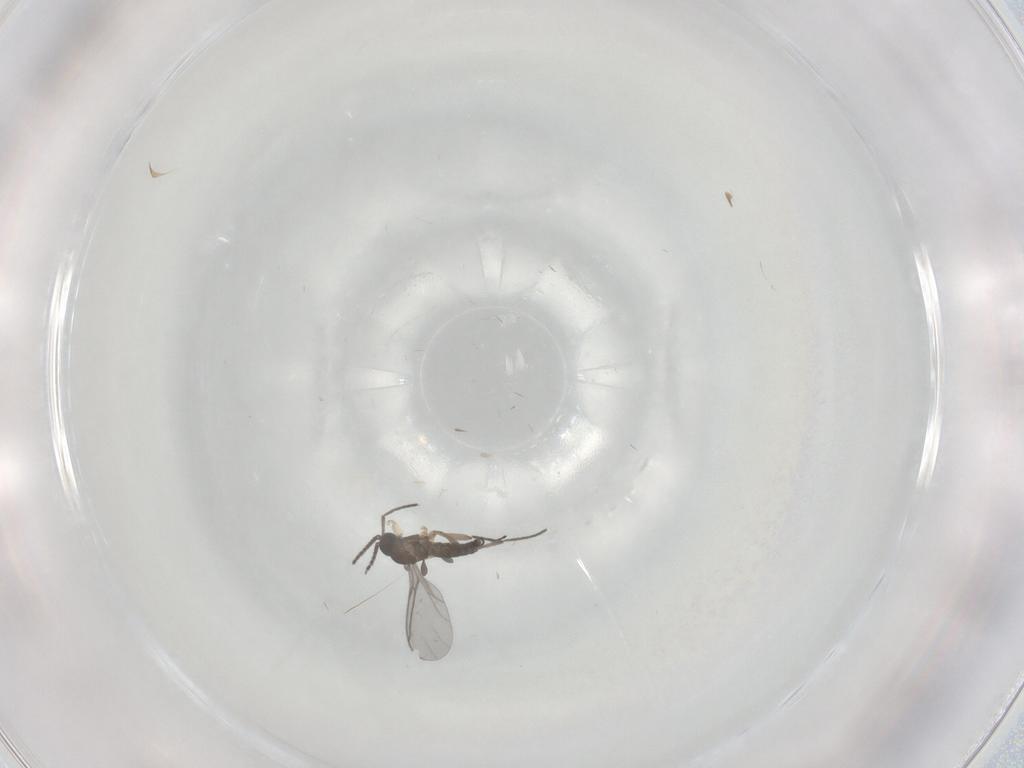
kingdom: Animalia
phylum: Arthropoda
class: Insecta
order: Diptera
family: Sciaridae
